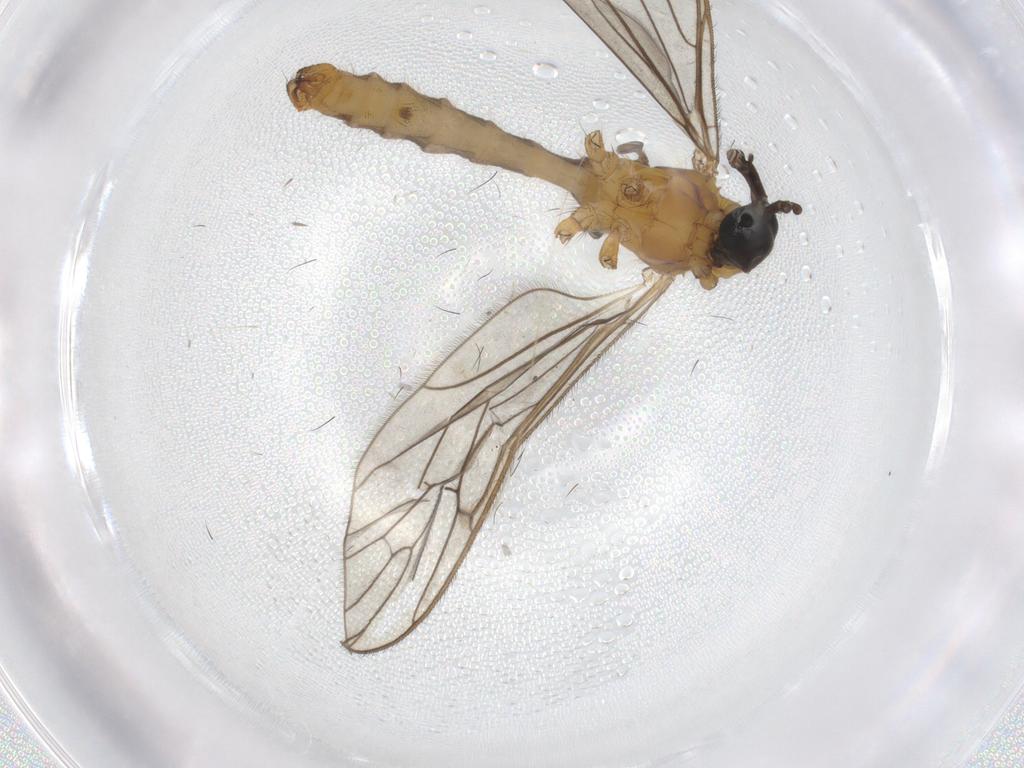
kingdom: Animalia
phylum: Arthropoda
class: Insecta
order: Diptera
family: Psychodidae
